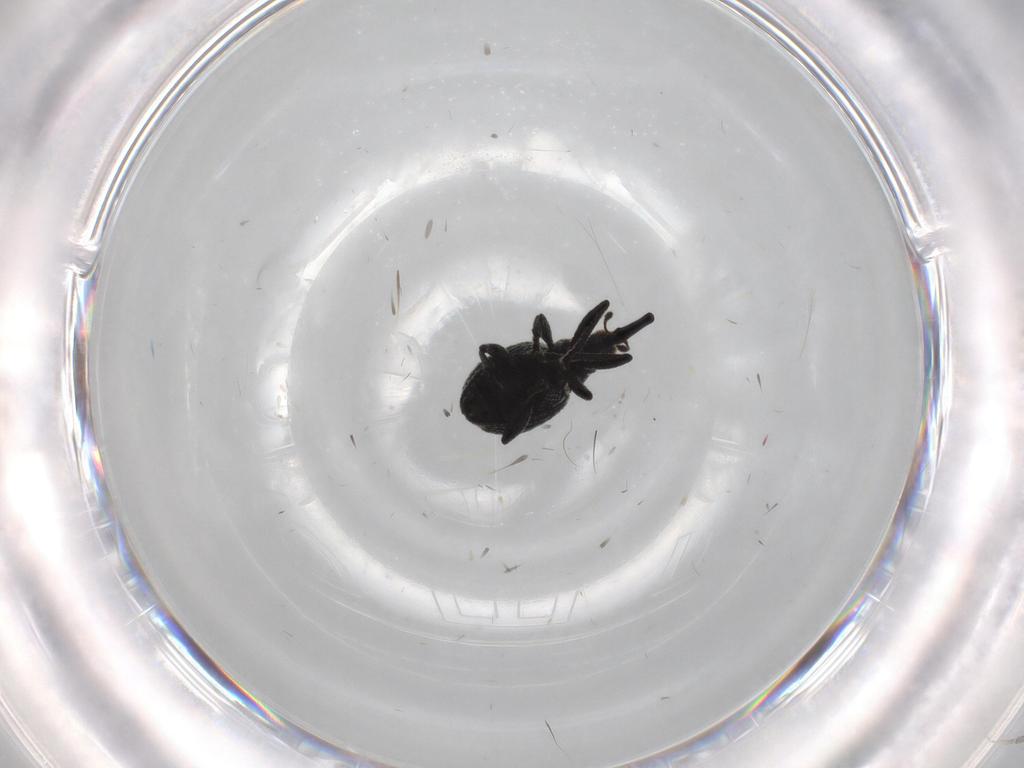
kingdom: Animalia
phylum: Arthropoda
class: Insecta
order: Coleoptera
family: Brentidae
